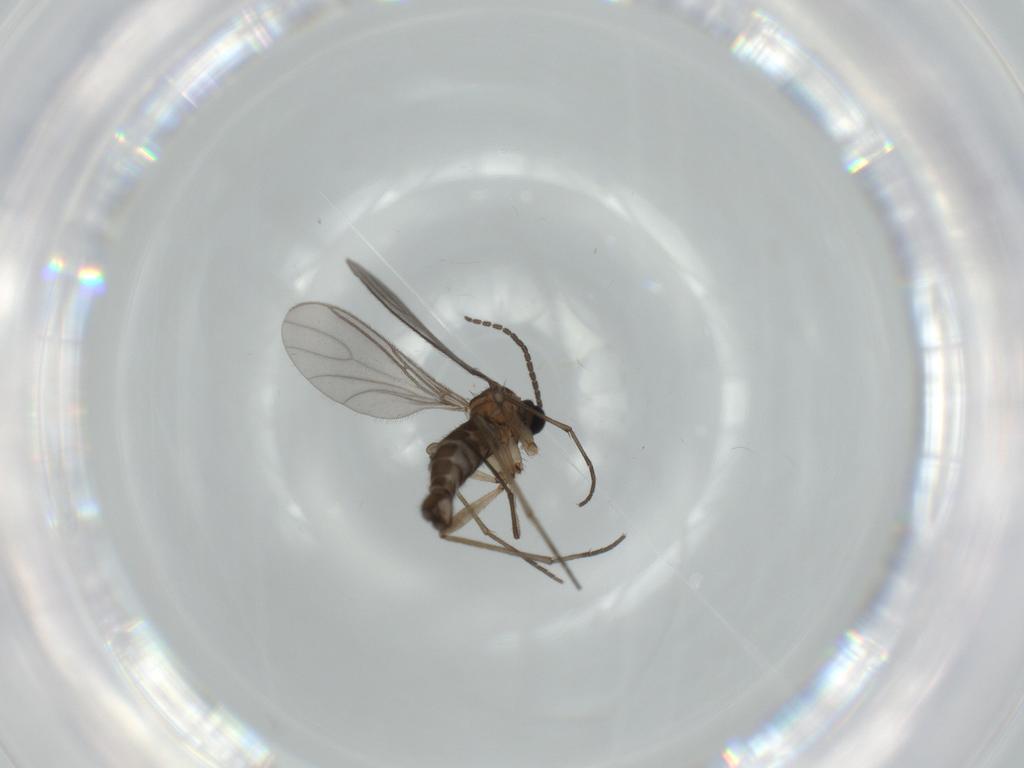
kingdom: Animalia
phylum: Arthropoda
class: Insecta
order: Diptera
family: Sciaridae
